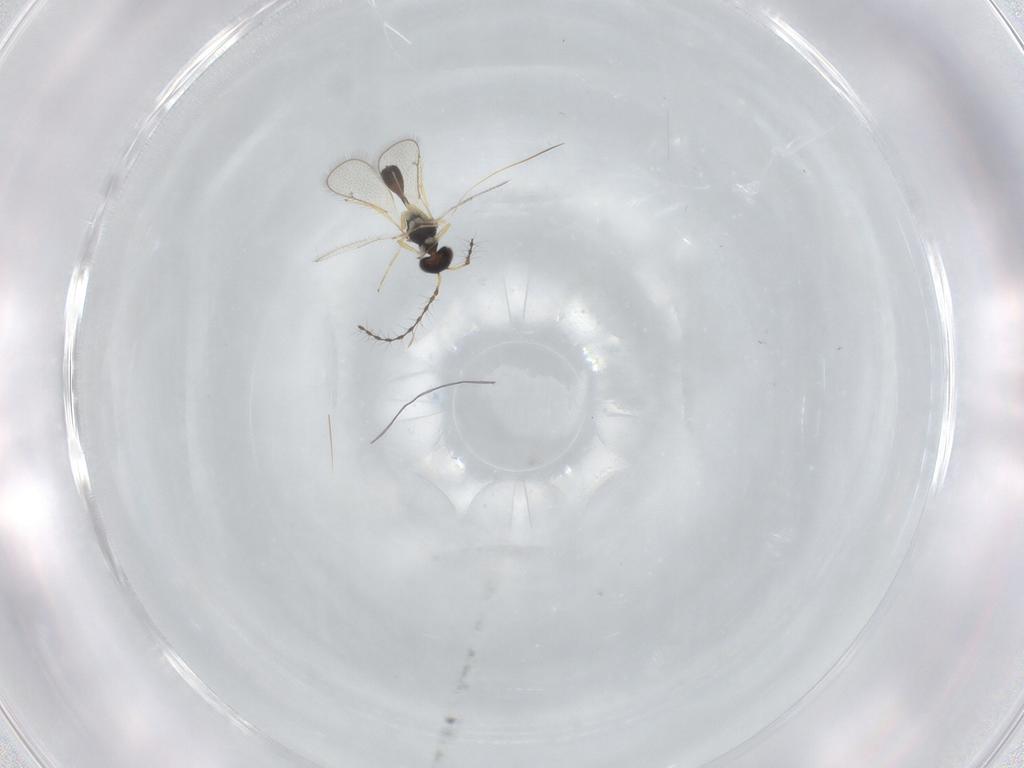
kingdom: Animalia
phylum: Arthropoda
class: Insecta
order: Hymenoptera
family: Diparidae
